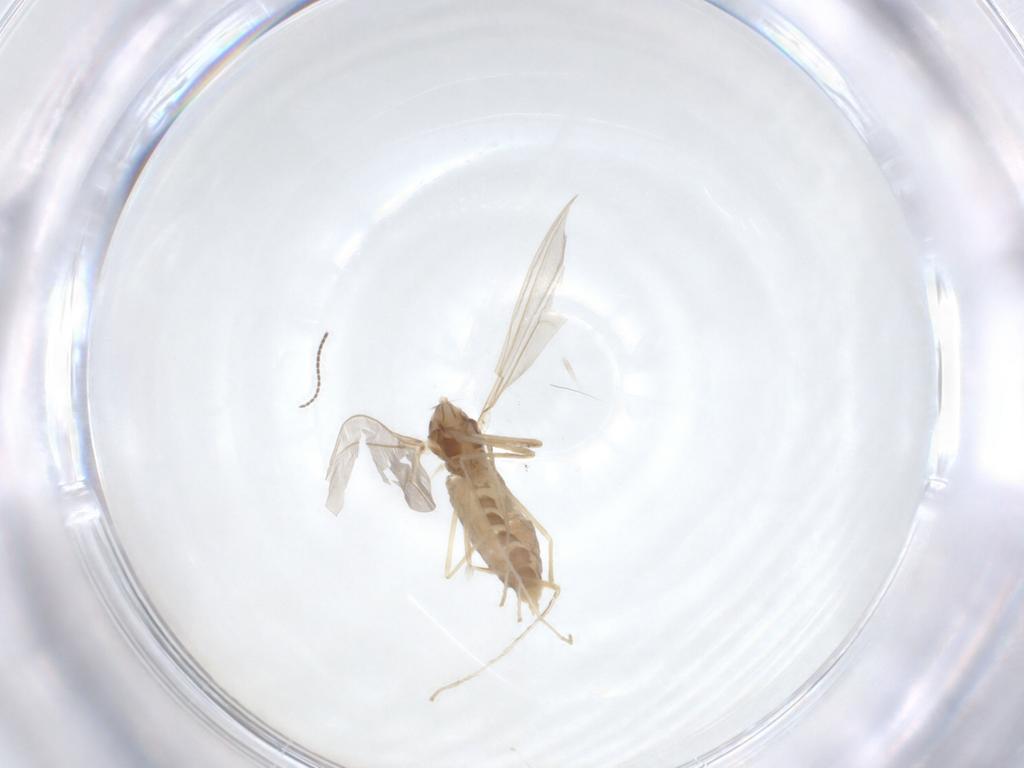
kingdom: Animalia
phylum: Arthropoda
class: Insecta
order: Diptera
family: Cecidomyiidae
